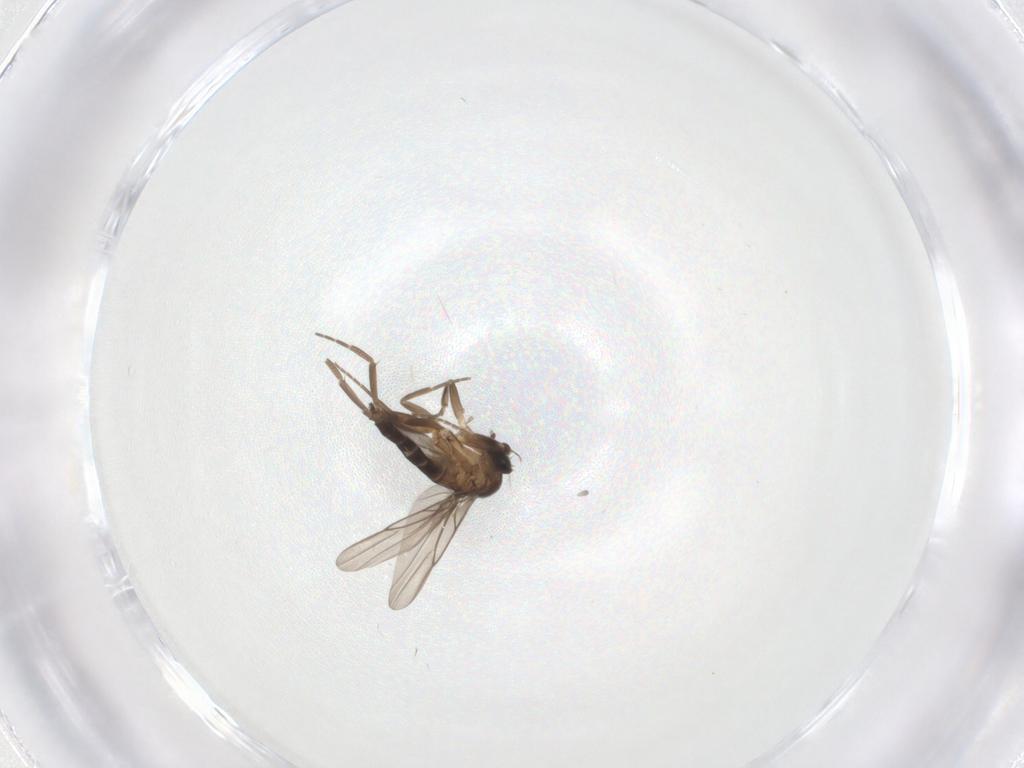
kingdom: Animalia
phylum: Arthropoda
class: Insecta
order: Diptera
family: Phoridae
